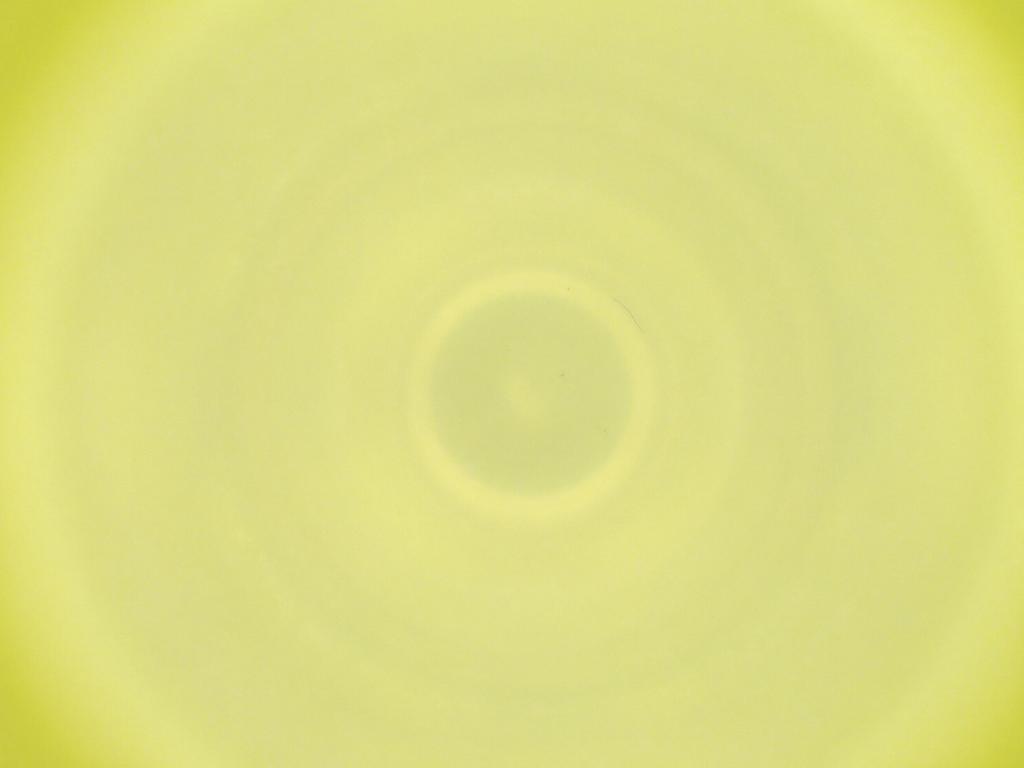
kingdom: Animalia
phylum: Arthropoda
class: Insecta
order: Diptera
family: Cecidomyiidae
